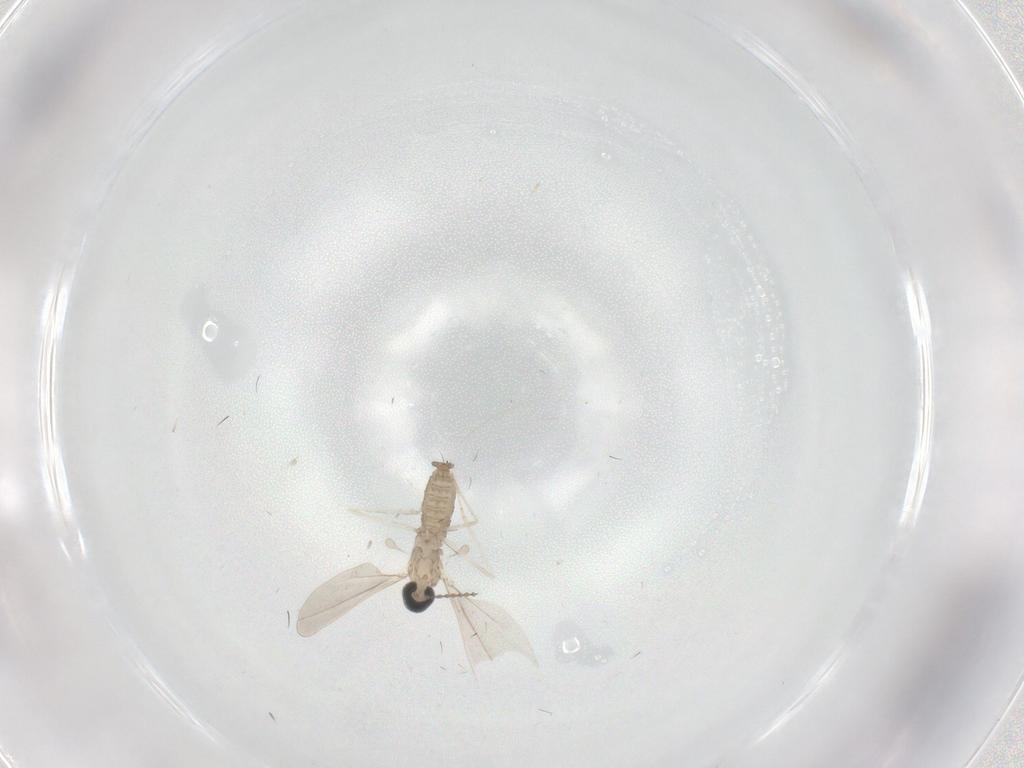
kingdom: Animalia
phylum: Arthropoda
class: Insecta
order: Diptera
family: Cecidomyiidae
